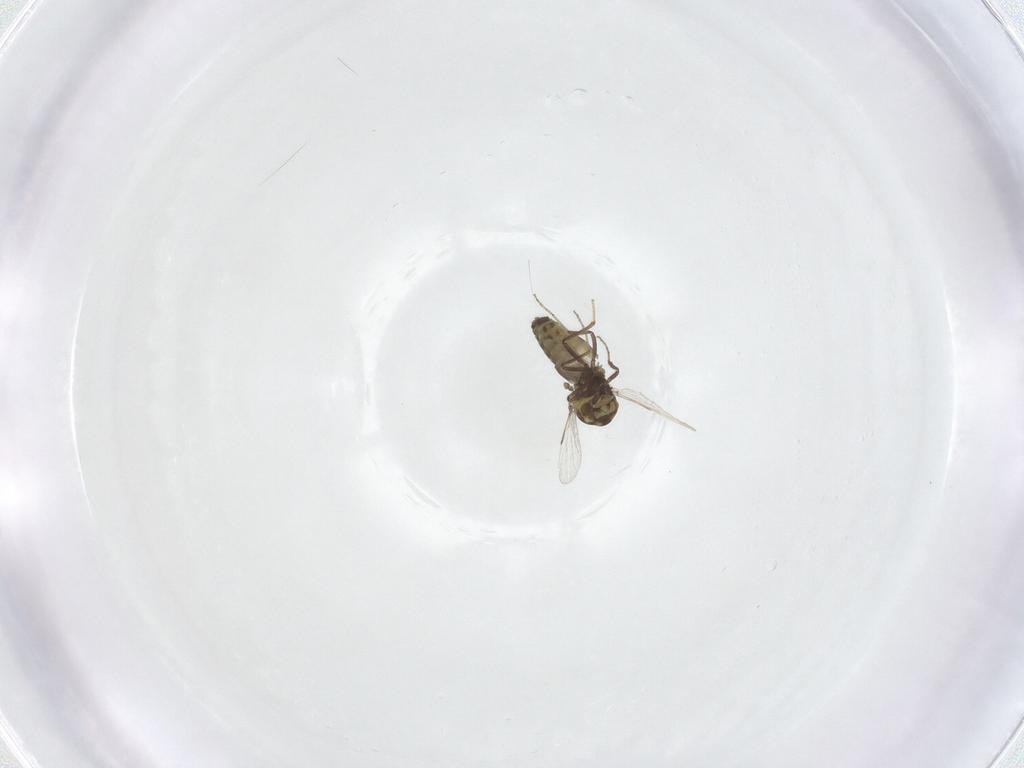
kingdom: Animalia
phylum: Arthropoda
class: Insecta
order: Diptera
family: Ceratopogonidae
